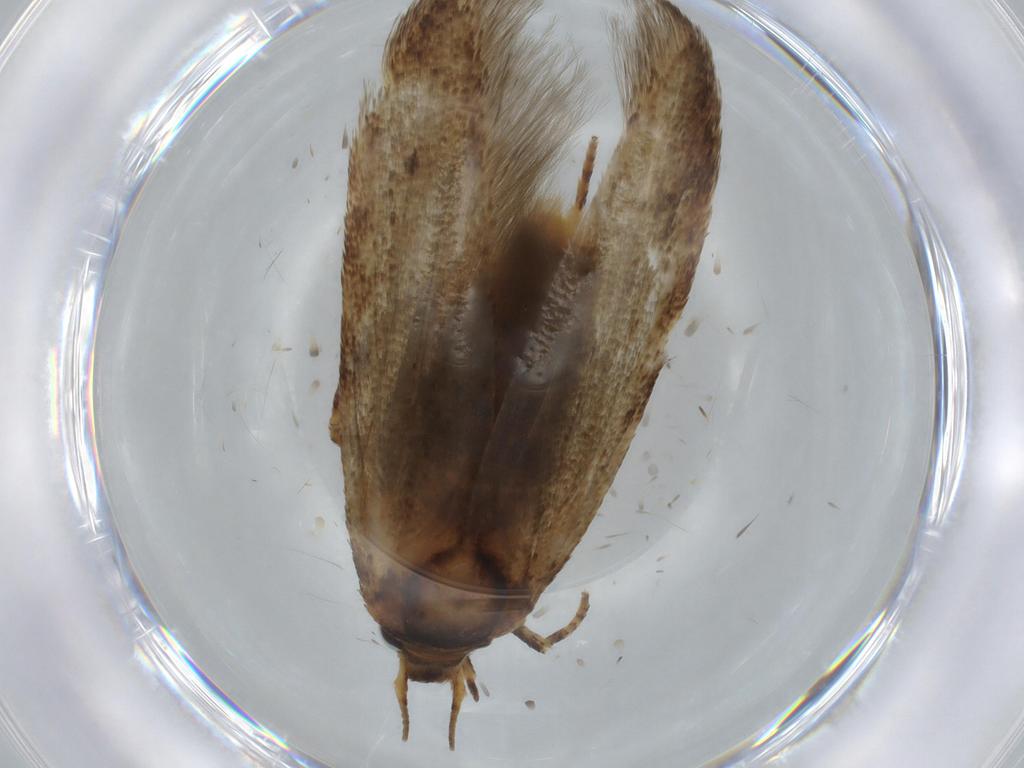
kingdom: Animalia
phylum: Arthropoda
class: Insecta
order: Lepidoptera
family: Blastobasidae
